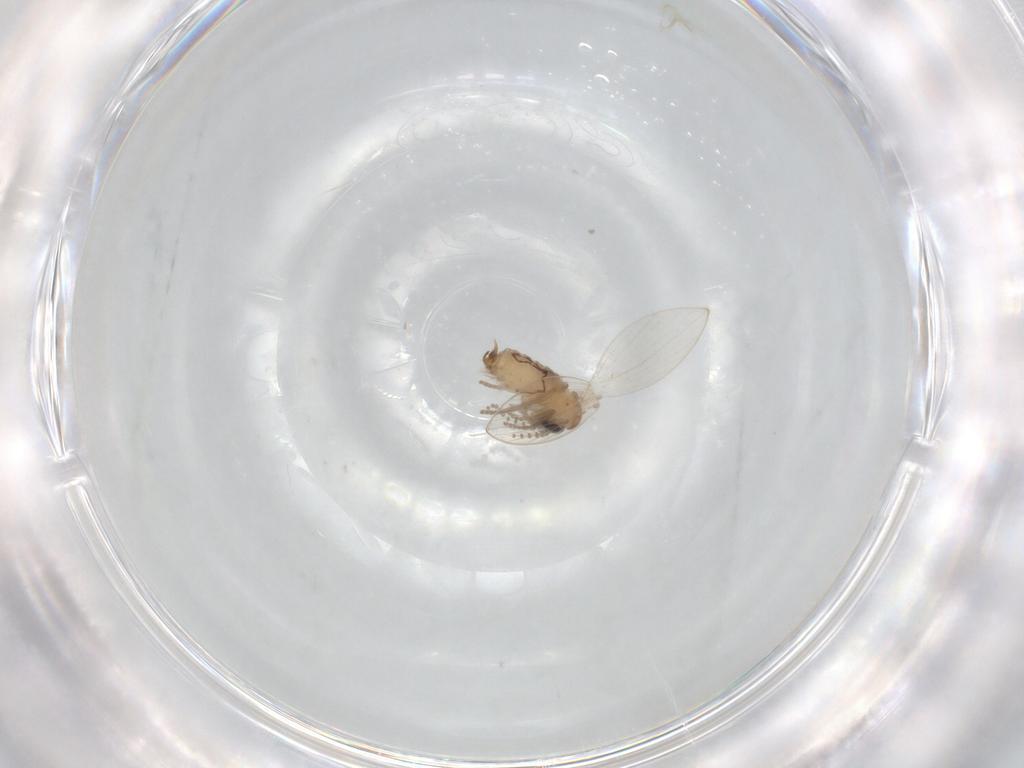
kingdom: Animalia
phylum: Arthropoda
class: Insecta
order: Diptera
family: Psychodidae
